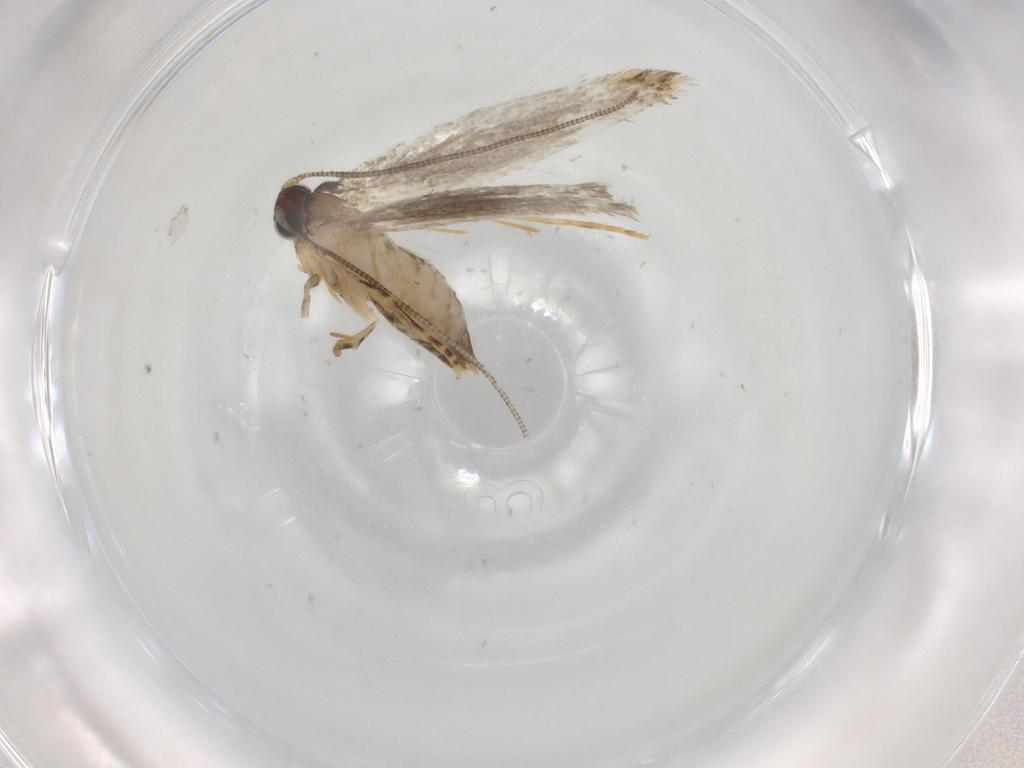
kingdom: Animalia
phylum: Arthropoda
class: Insecta
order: Lepidoptera
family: Tineidae
